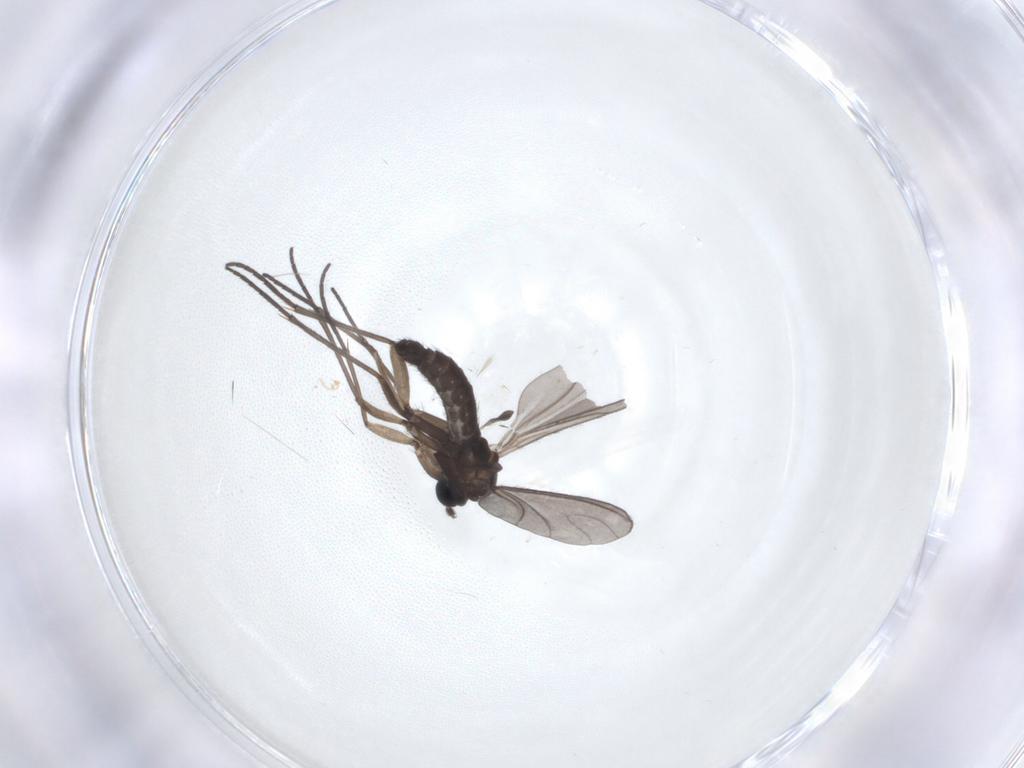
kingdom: Animalia
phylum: Arthropoda
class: Insecta
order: Diptera
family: Sciaridae
